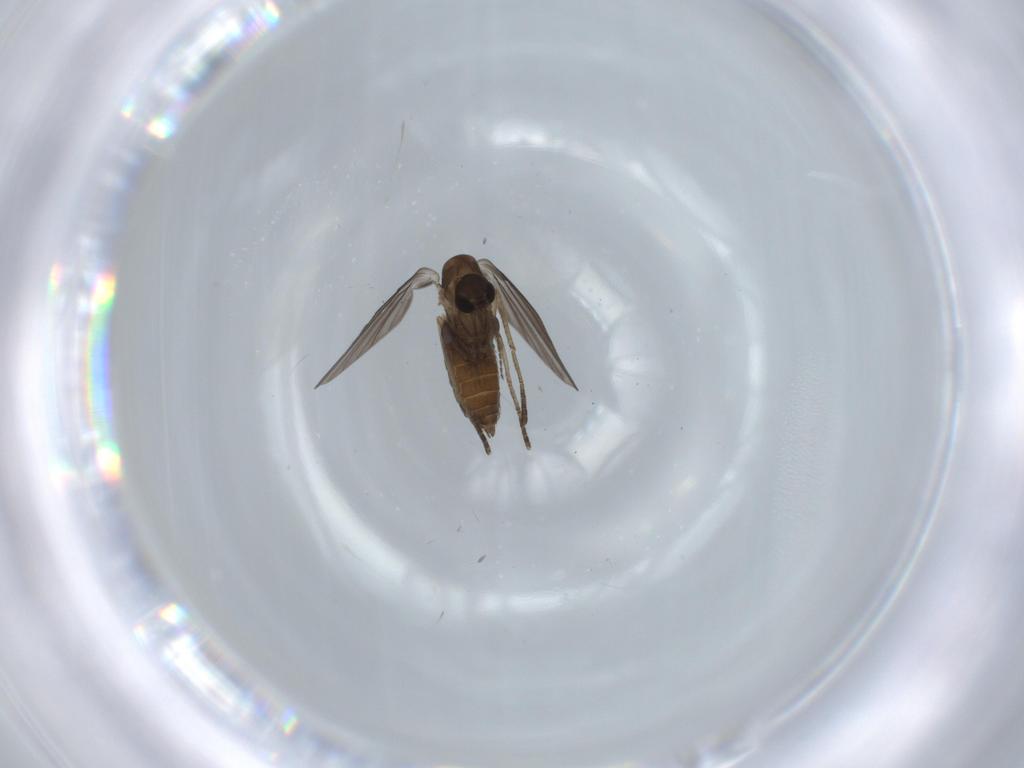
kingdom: Animalia
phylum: Arthropoda
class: Insecta
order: Diptera
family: Psychodidae
